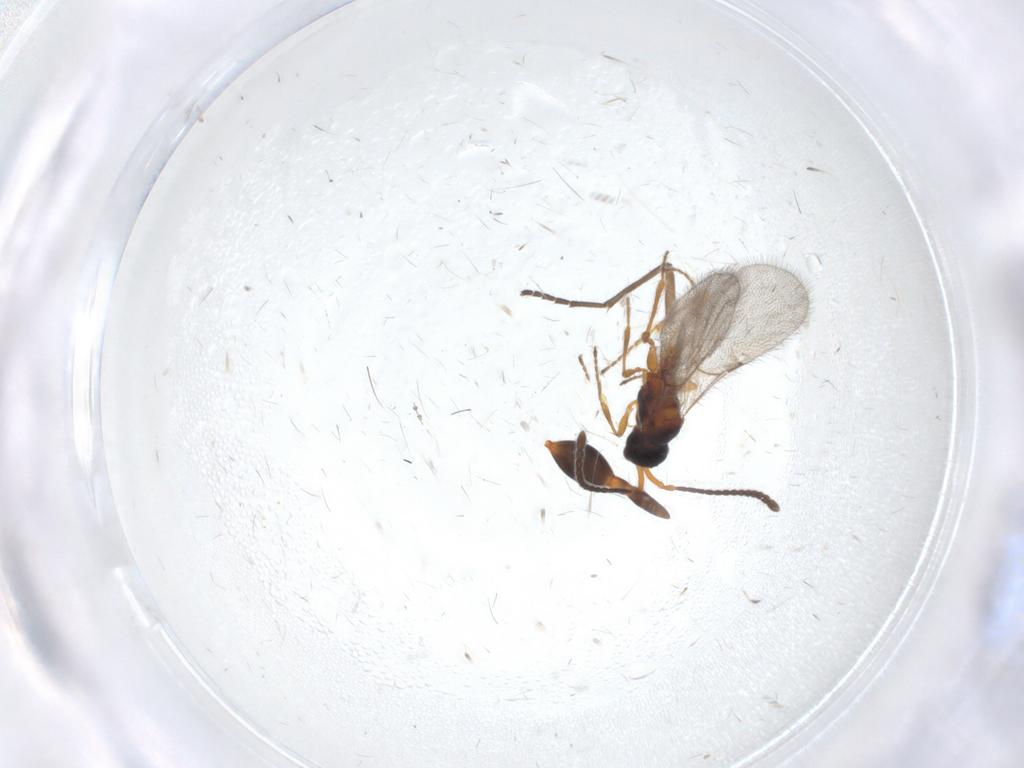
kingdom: Animalia
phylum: Arthropoda
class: Insecta
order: Hymenoptera
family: Diapriidae
